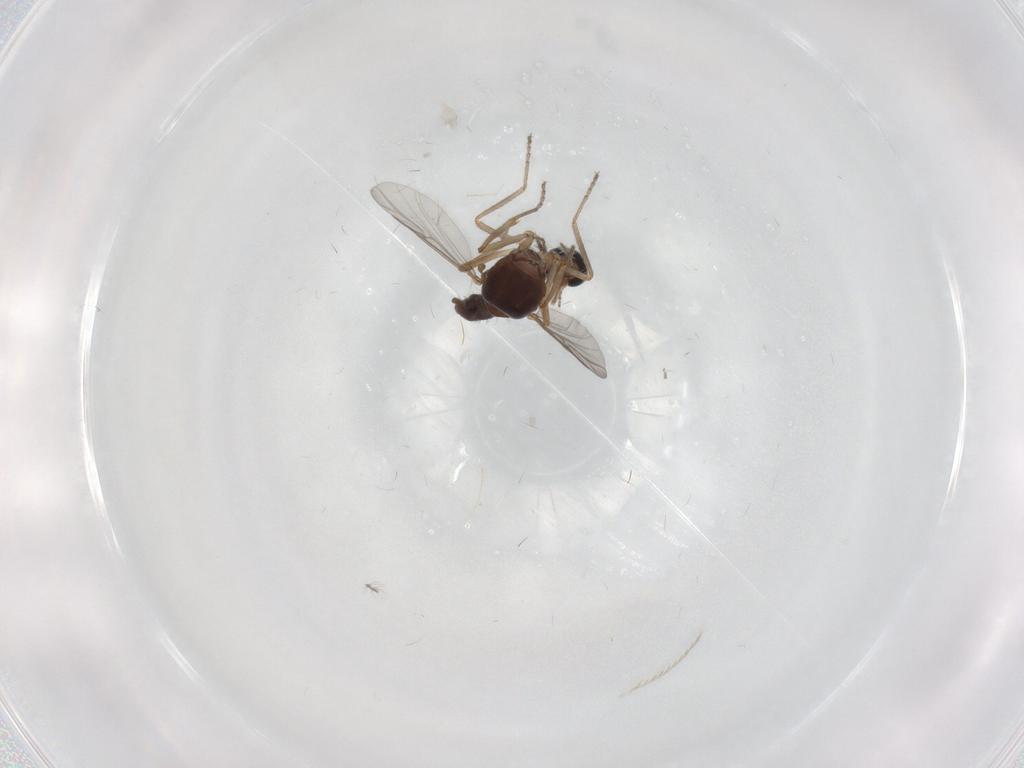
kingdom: Animalia
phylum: Arthropoda
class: Insecta
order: Diptera
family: Ceratopogonidae
